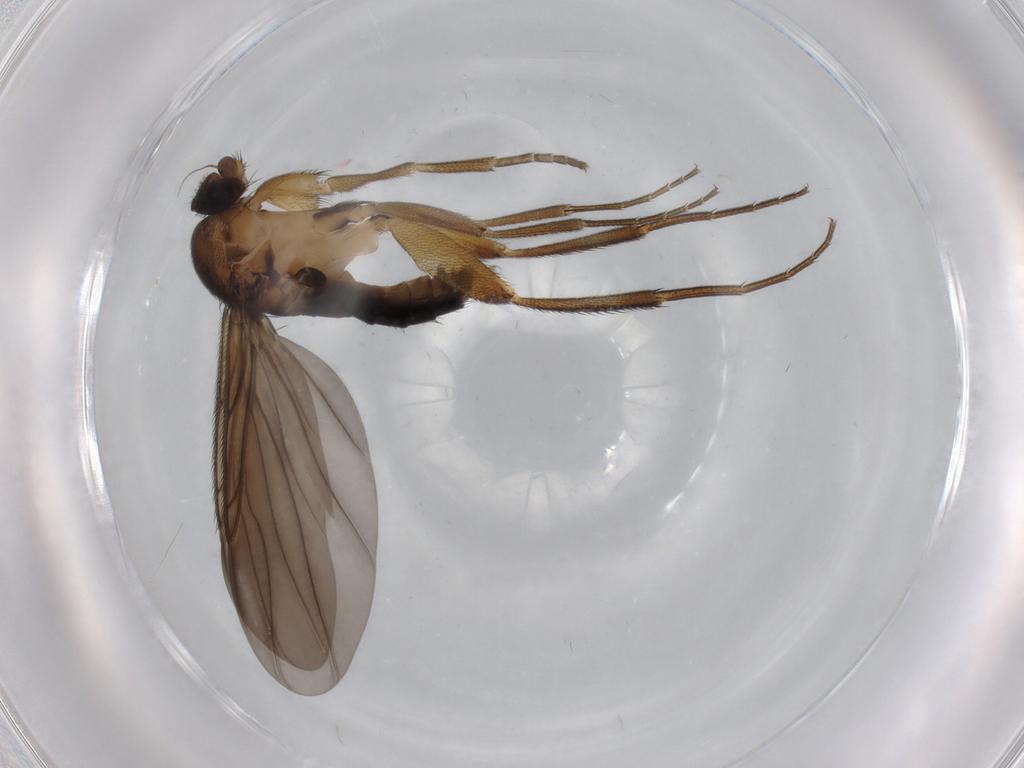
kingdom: Animalia
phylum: Arthropoda
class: Insecta
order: Diptera
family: Phoridae
